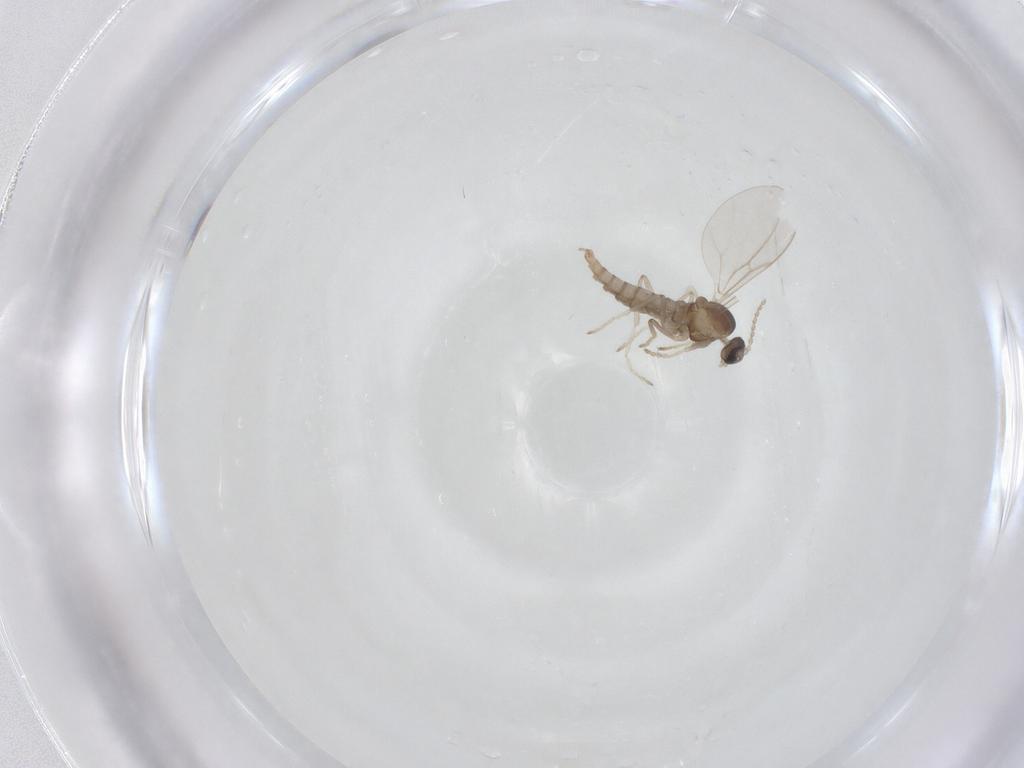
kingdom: Animalia
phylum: Arthropoda
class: Insecta
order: Diptera
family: Cecidomyiidae
